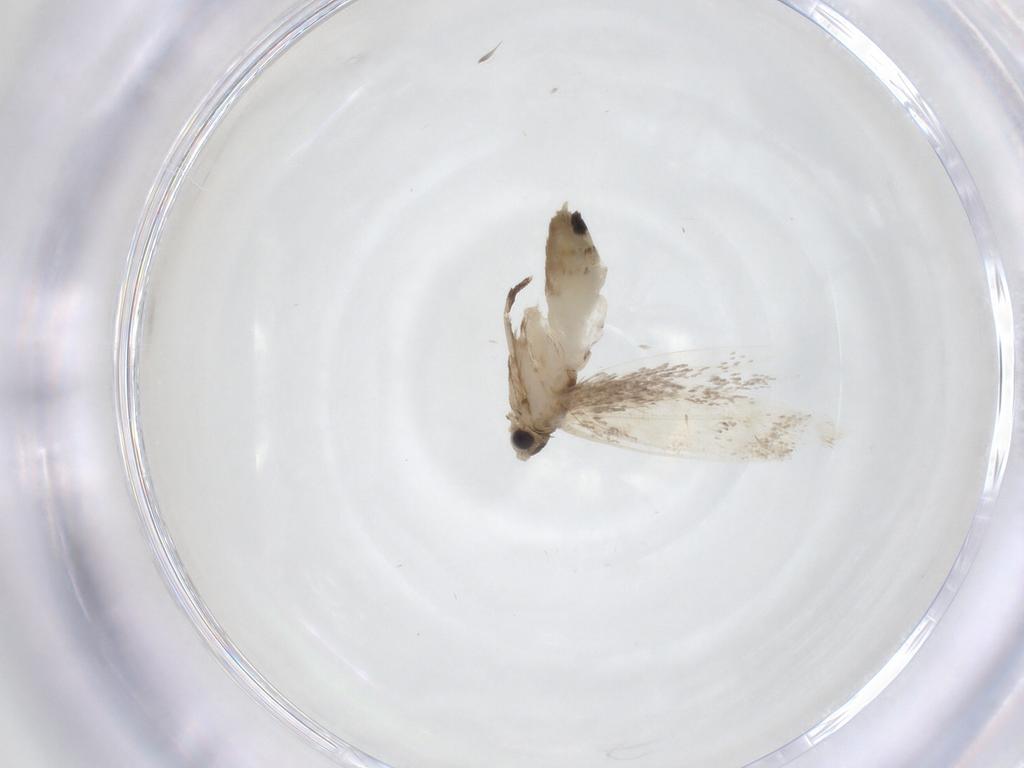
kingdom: Animalia
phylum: Arthropoda
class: Insecta
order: Lepidoptera
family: Dryadaulidae
